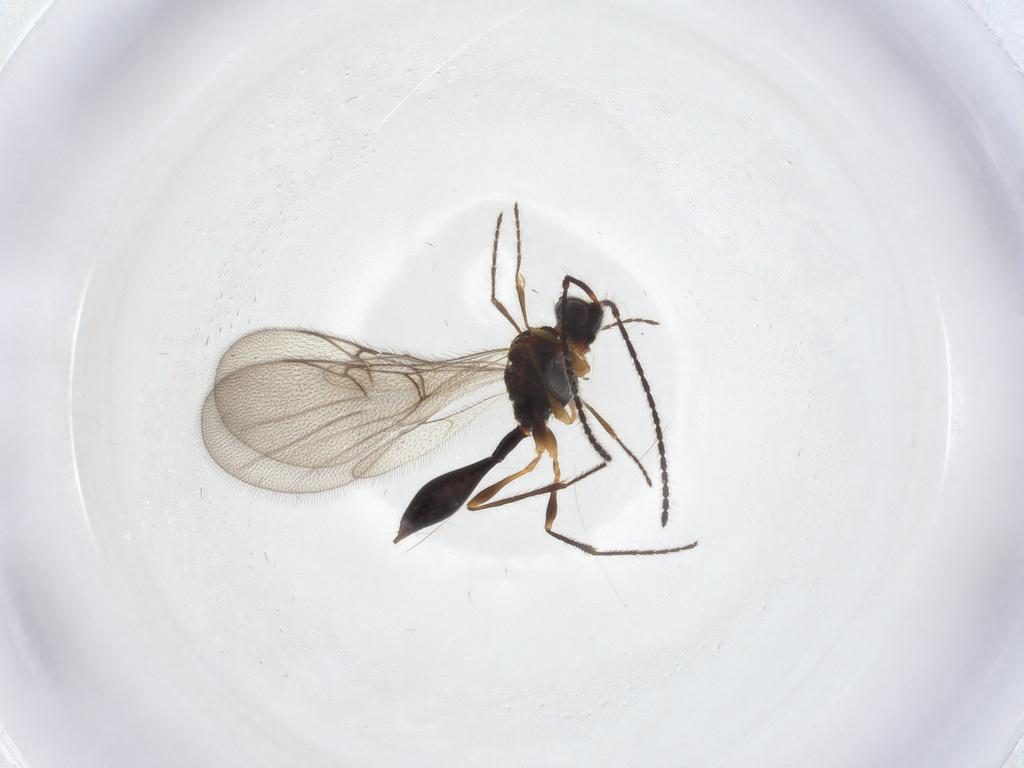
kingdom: Animalia
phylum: Arthropoda
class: Insecta
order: Hymenoptera
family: Diapriidae
